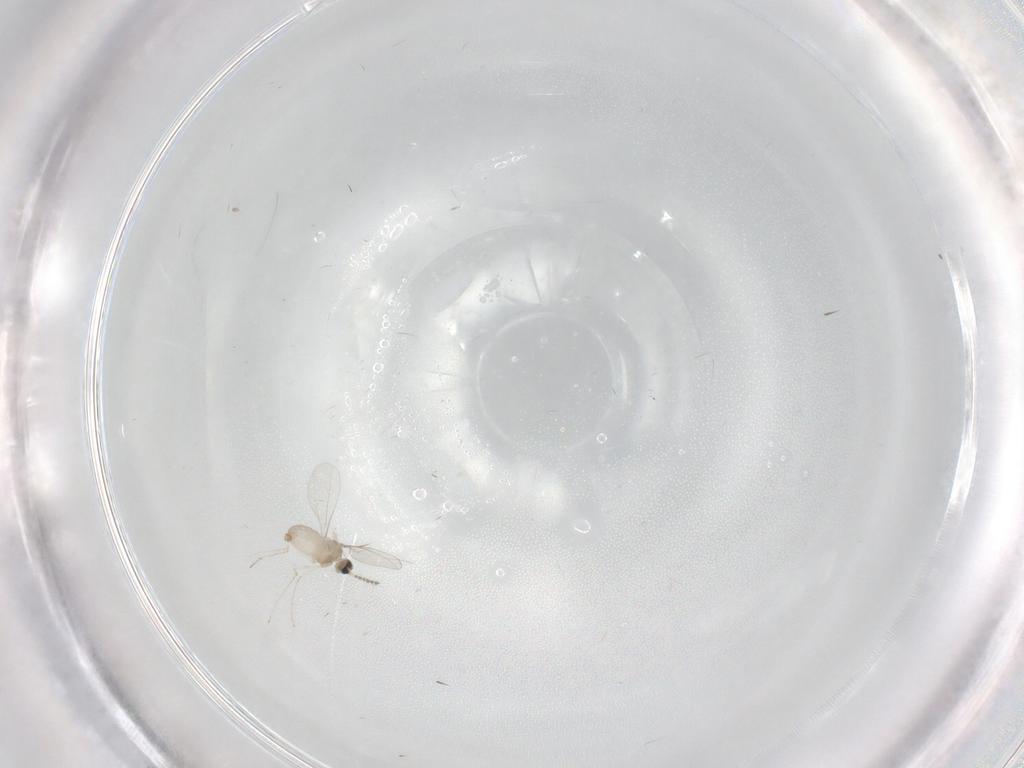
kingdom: Animalia
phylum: Arthropoda
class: Insecta
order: Diptera
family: Cecidomyiidae
